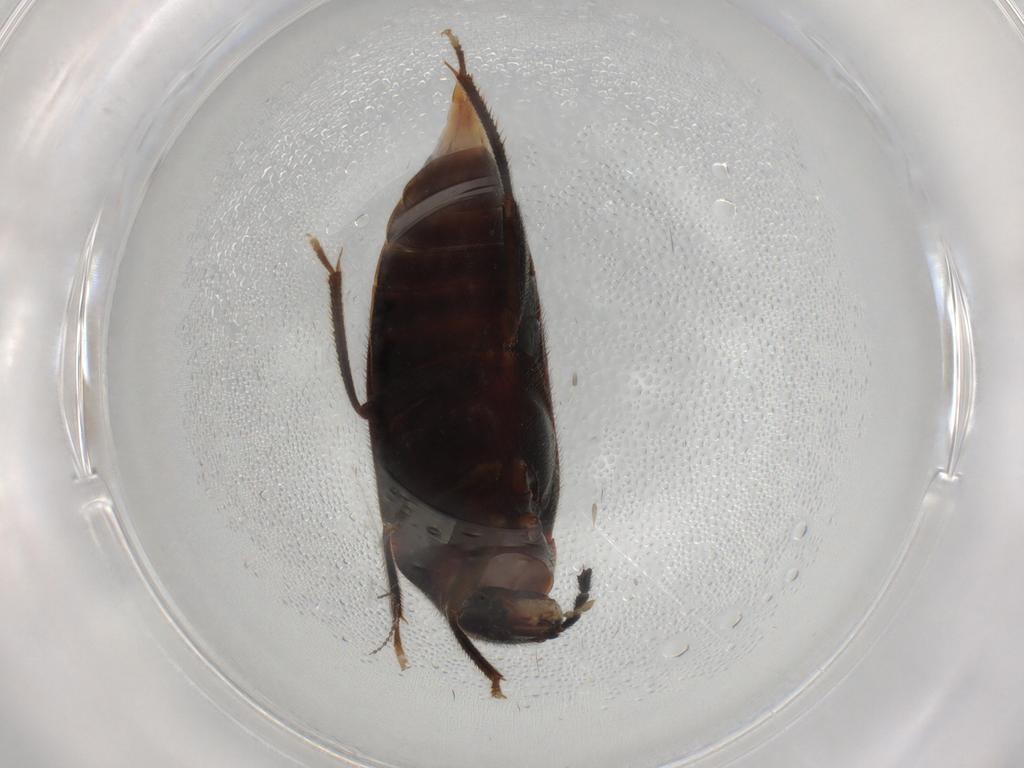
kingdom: Animalia
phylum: Arthropoda
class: Insecta
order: Coleoptera
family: Ptilodactylidae
